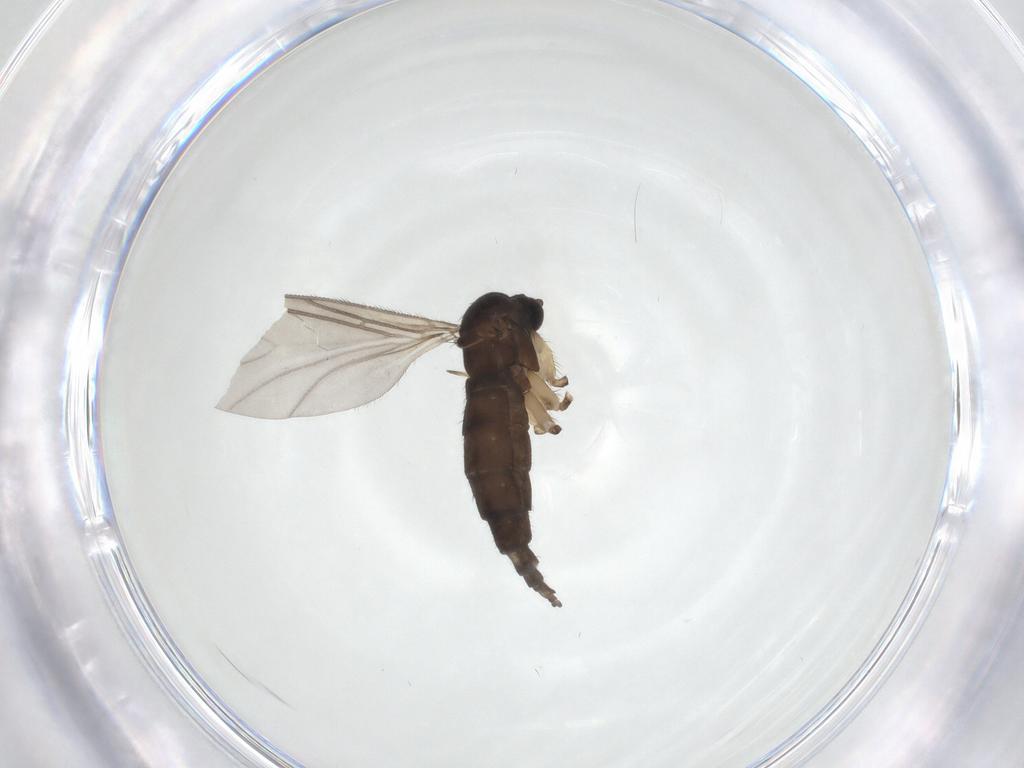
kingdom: Animalia
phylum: Arthropoda
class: Insecta
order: Diptera
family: Sciaridae
